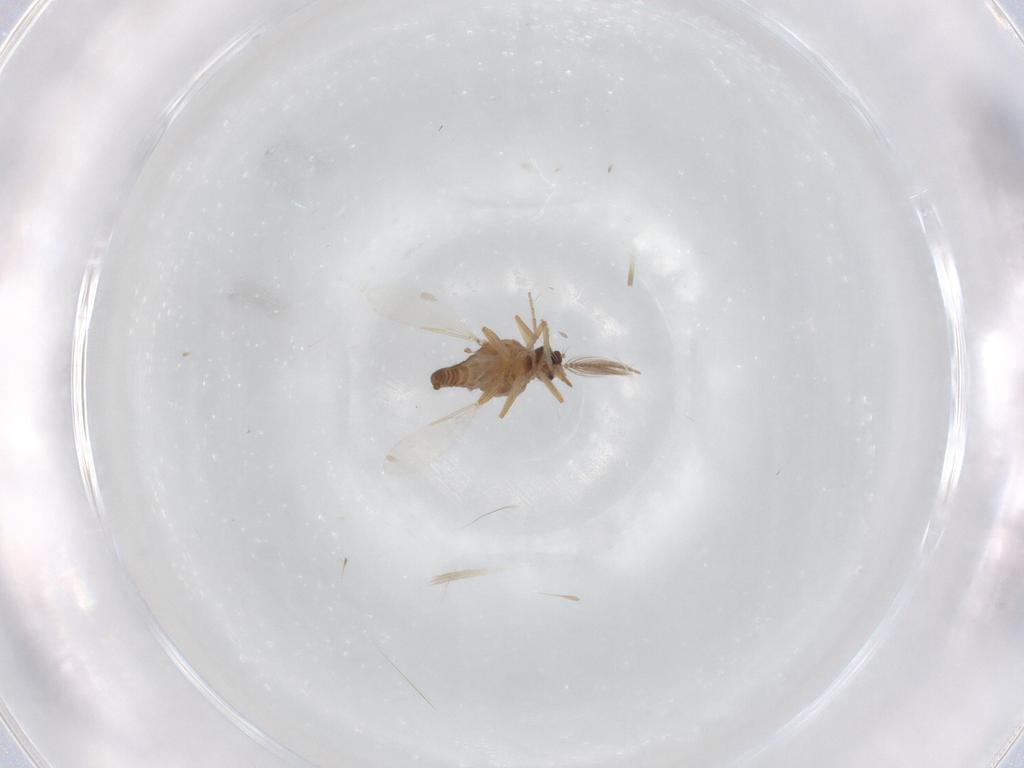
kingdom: Animalia
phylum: Arthropoda
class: Insecta
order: Diptera
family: Ceratopogonidae
